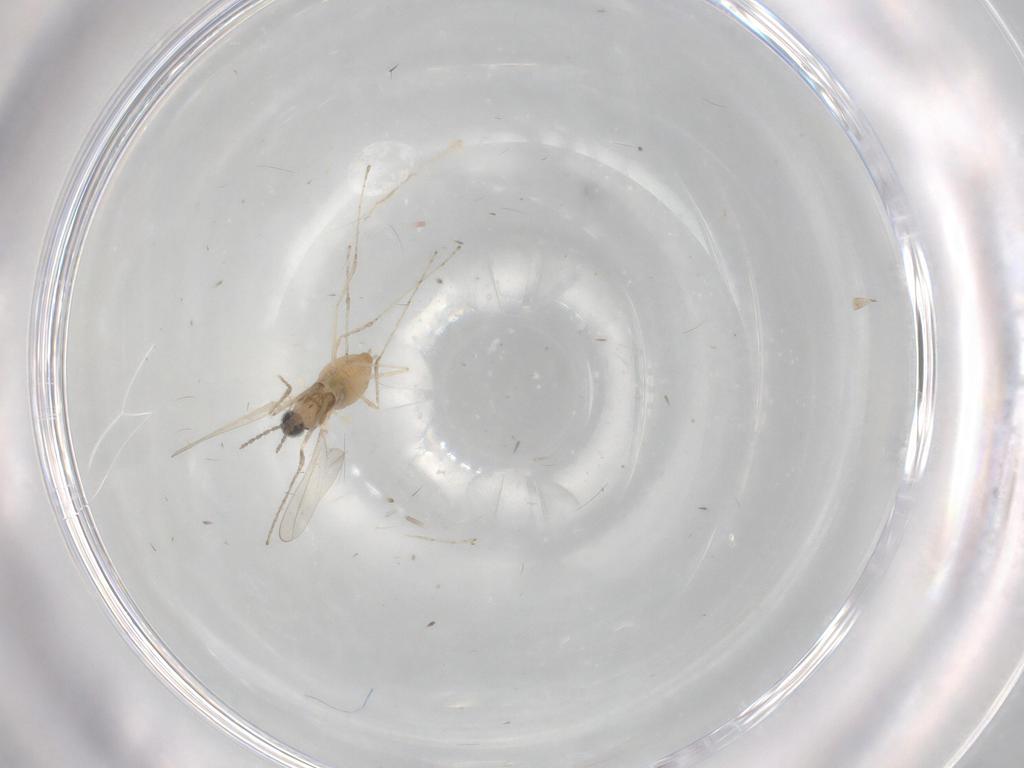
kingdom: Animalia
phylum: Arthropoda
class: Insecta
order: Diptera
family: Cecidomyiidae
